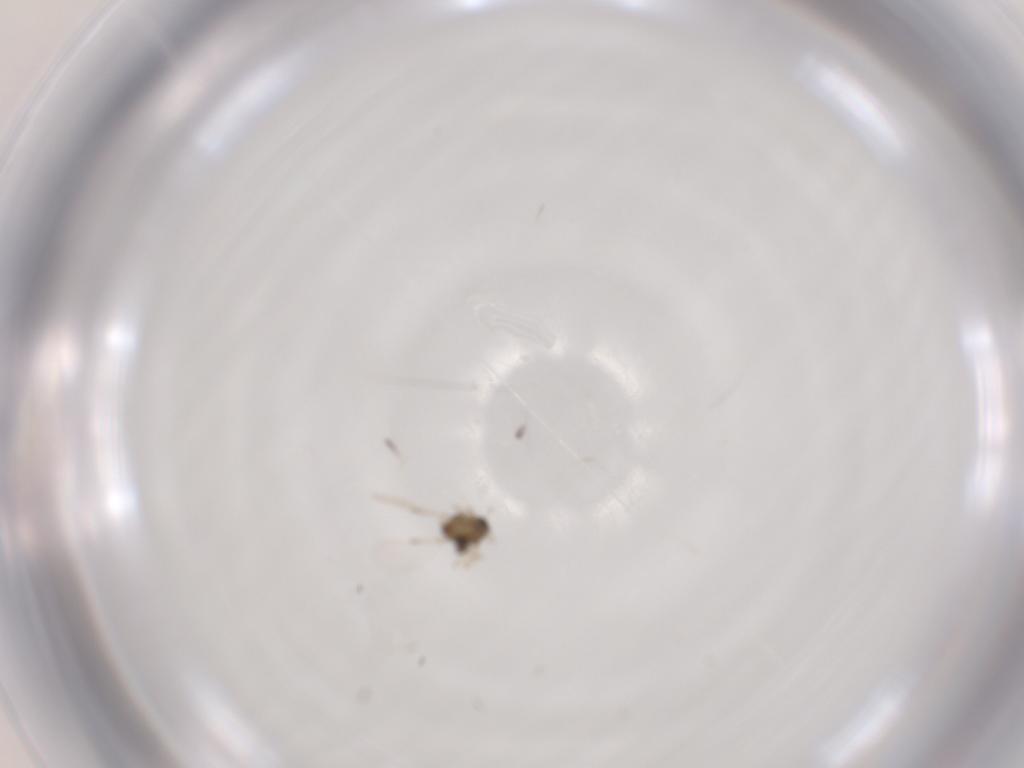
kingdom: Animalia
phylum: Arthropoda
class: Insecta
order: Diptera
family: Chironomidae
